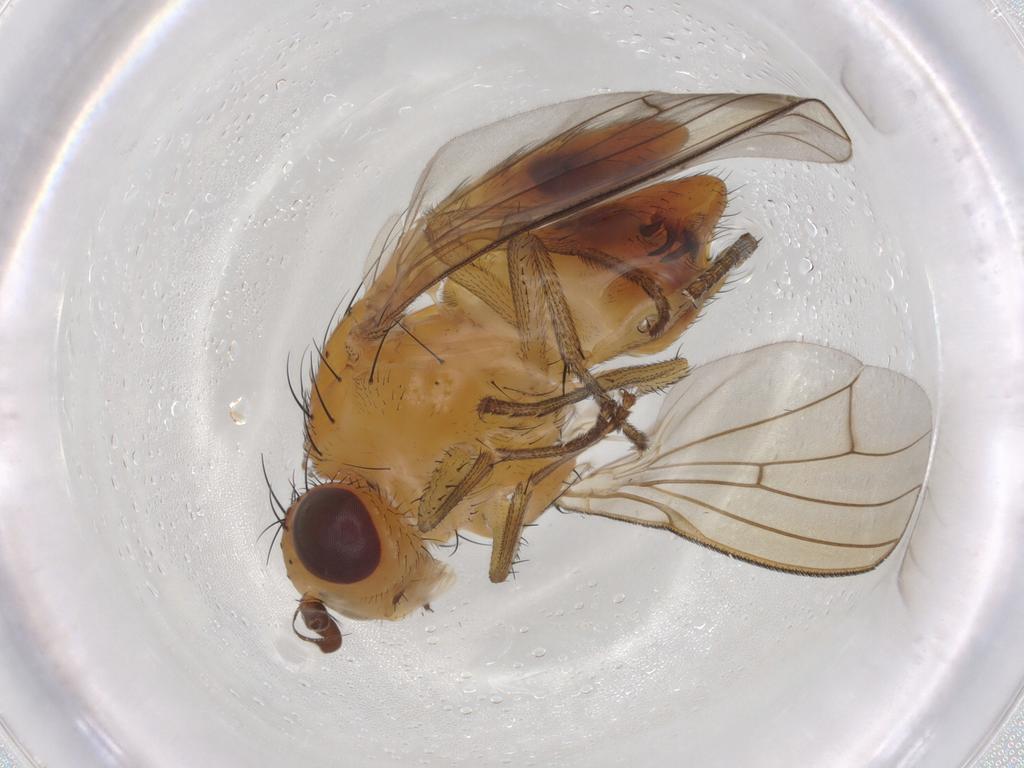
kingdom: Animalia
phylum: Arthropoda
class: Insecta
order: Diptera
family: Lauxaniidae
